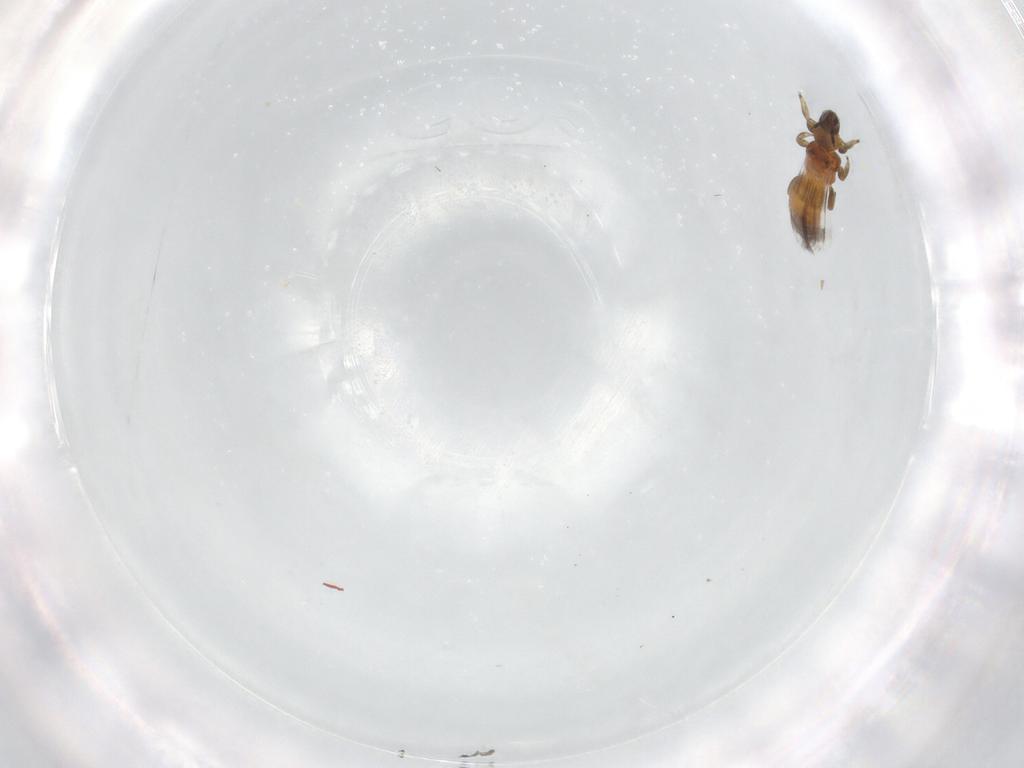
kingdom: Animalia
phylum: Arthropoda
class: Insecta
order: Thysanoptera
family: Aeolothripidae
